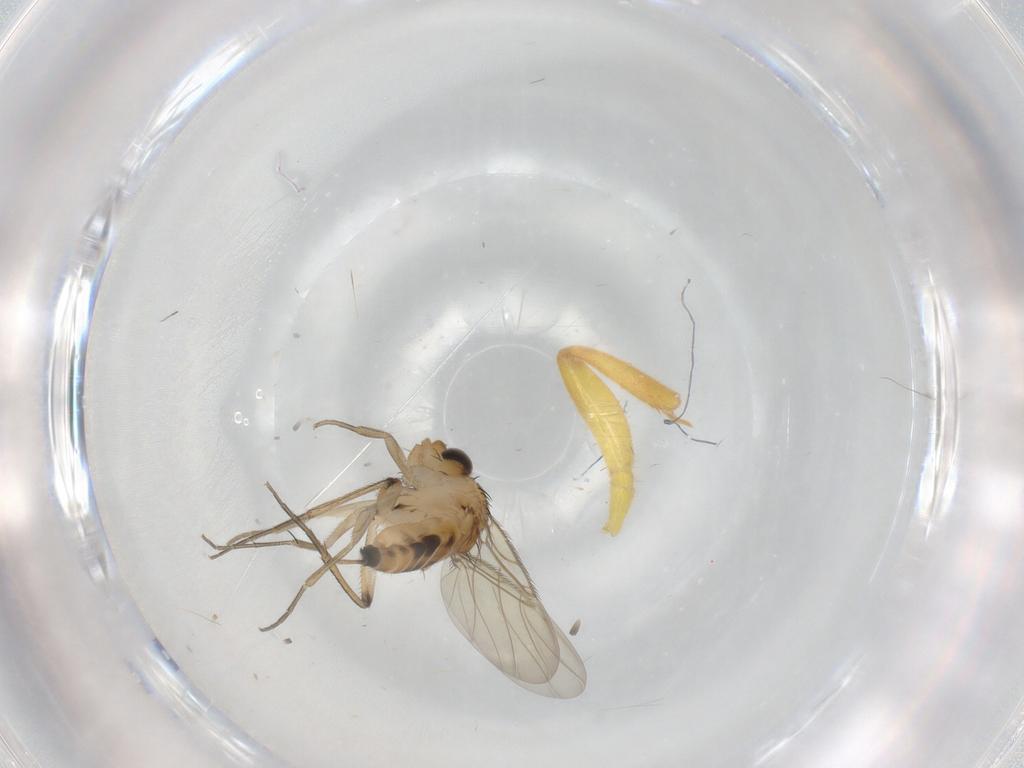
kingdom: Animalia
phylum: Arthropoda
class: Insecta
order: Diptera
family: Phoridae
